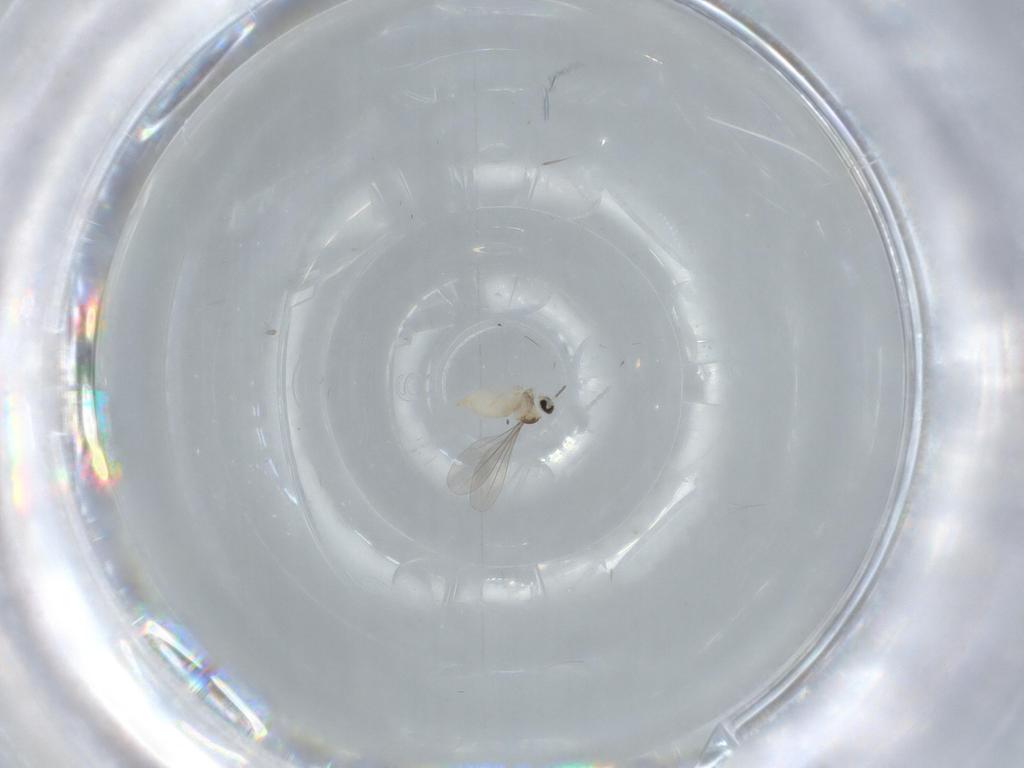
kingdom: Animalia
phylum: Arthropoda
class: Insecta
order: Diptera
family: Cecidomyiidae
